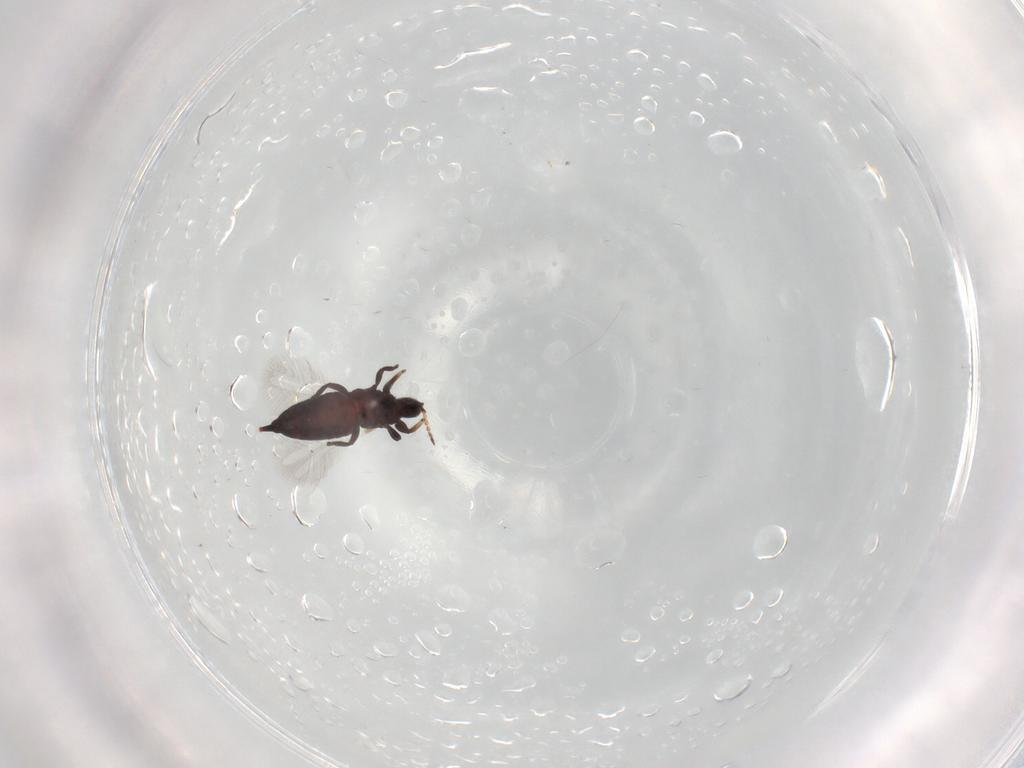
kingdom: Animalia
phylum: Arthropoda
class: Insecta
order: Thysanoptera
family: Phlaeothripidae
